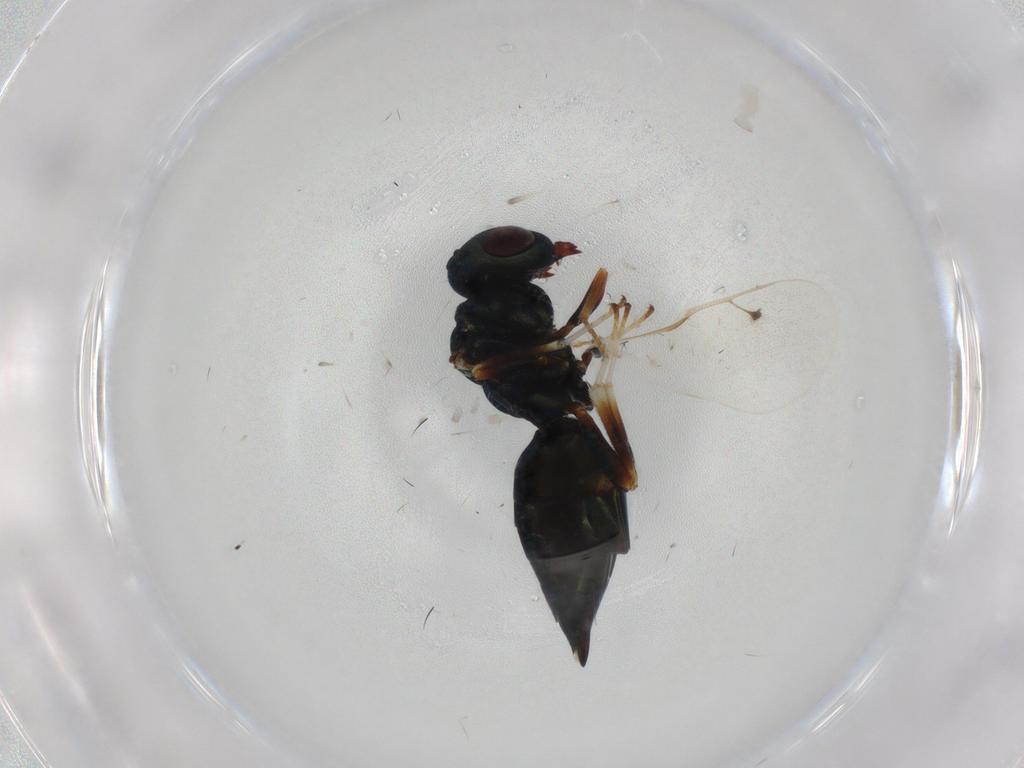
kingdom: Animalia
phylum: Arthropoda
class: Insecta
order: Hymenoptera
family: Braconidae
